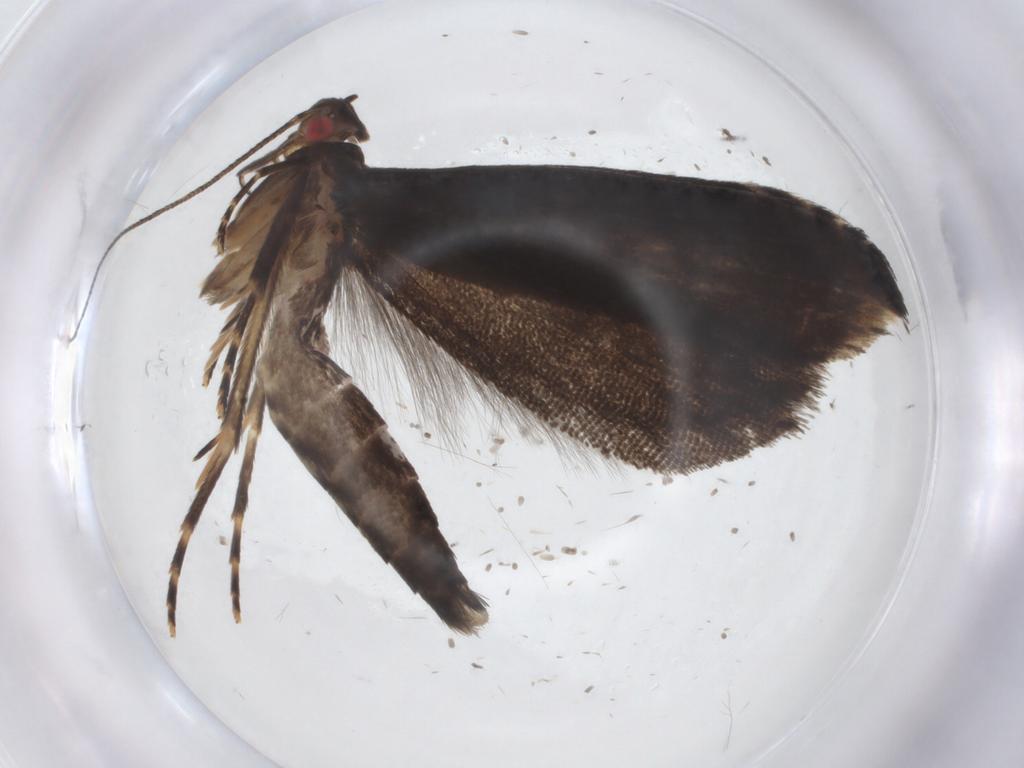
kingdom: Animalia
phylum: Arthropoda
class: Insecta
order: Lepidoptera
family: Gelechiidae
